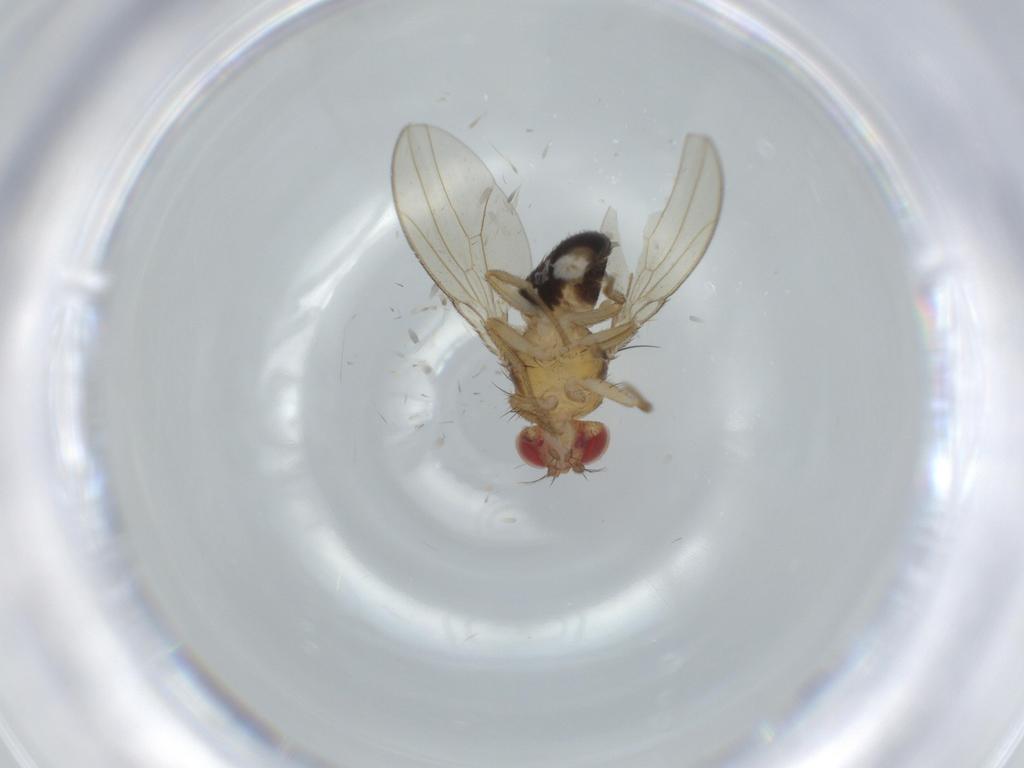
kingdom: Animalia
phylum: Arthropoda
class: Insecta
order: Diptera
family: Drosophilidae
